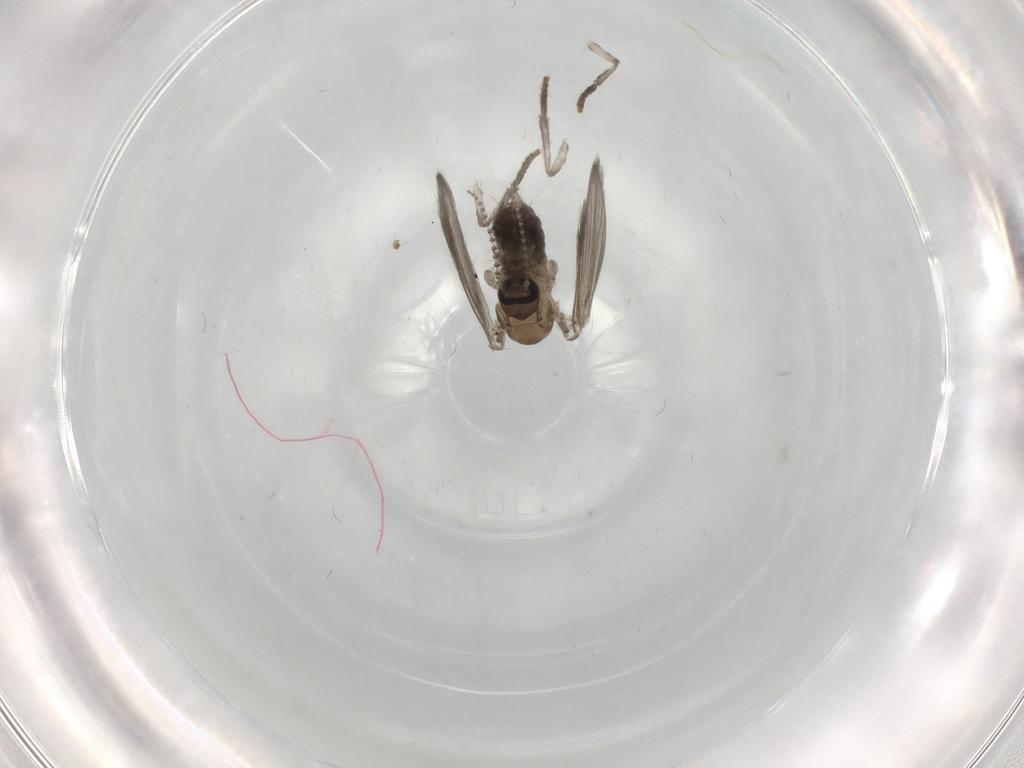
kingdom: Animalia
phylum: Arthropoda
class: Insecta
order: Diptera
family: Psychodidae
